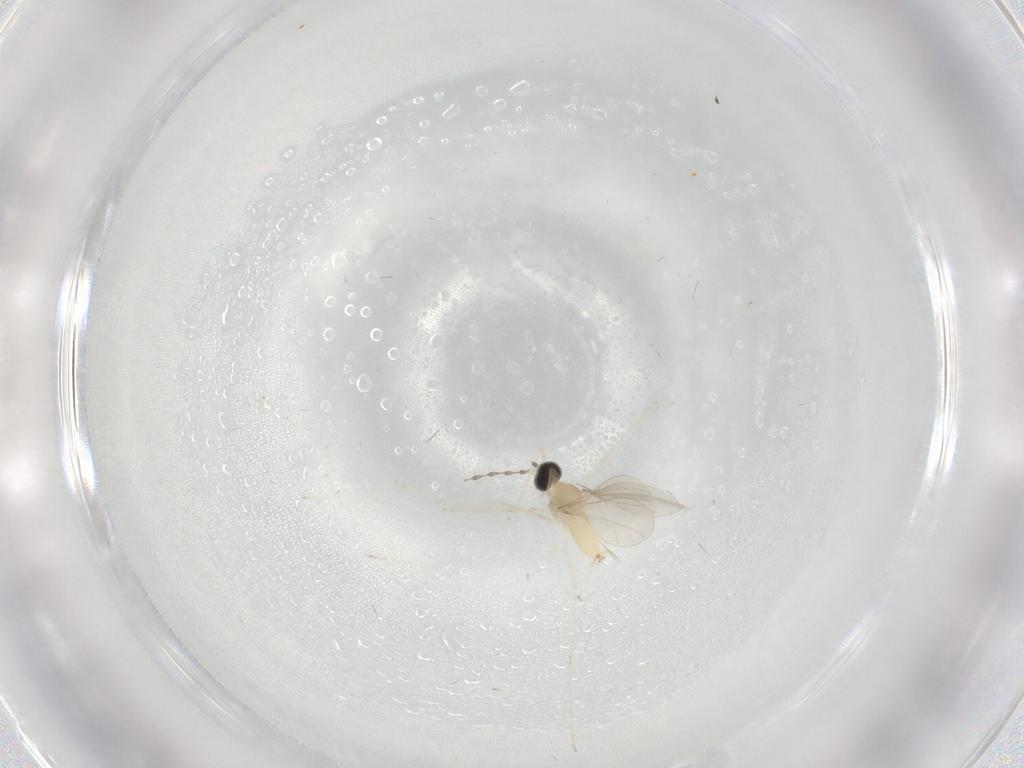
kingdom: Animalia
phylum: Arthropoda
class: Insecta
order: Diptera
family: Cecidomyiidae
